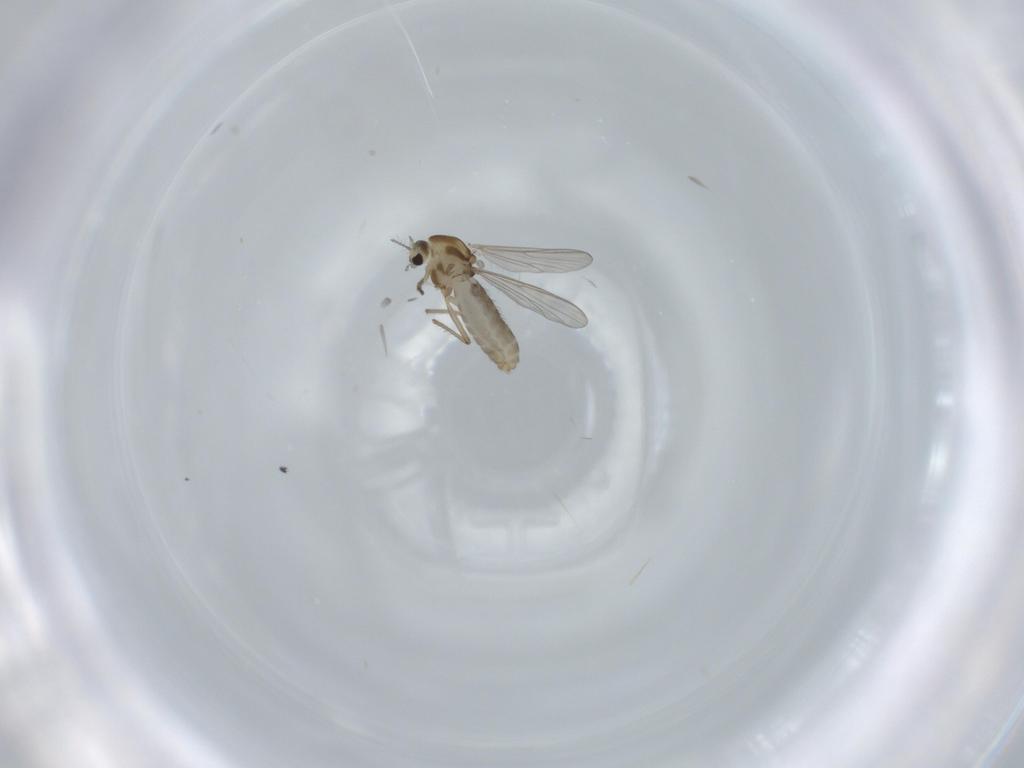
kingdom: Animalia
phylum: Arthropoda
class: Insecta
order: Diptera
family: Chironomidae
